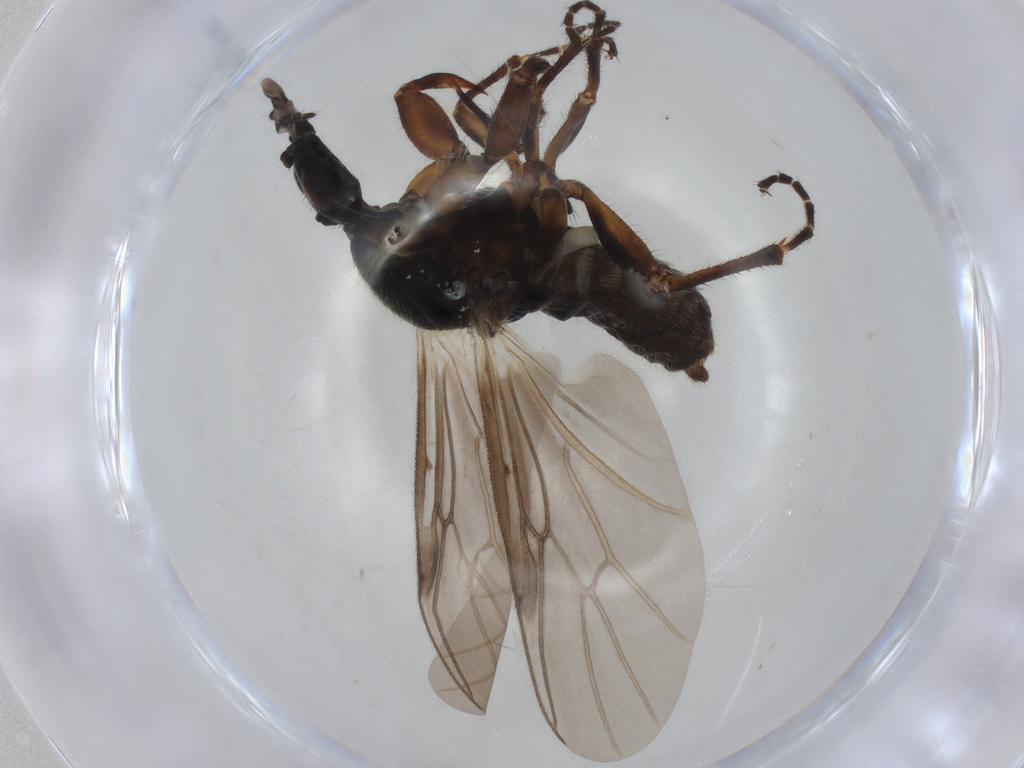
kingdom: Animalia
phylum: Arthropoda
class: Insecta
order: Diptera
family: Bibionidae
